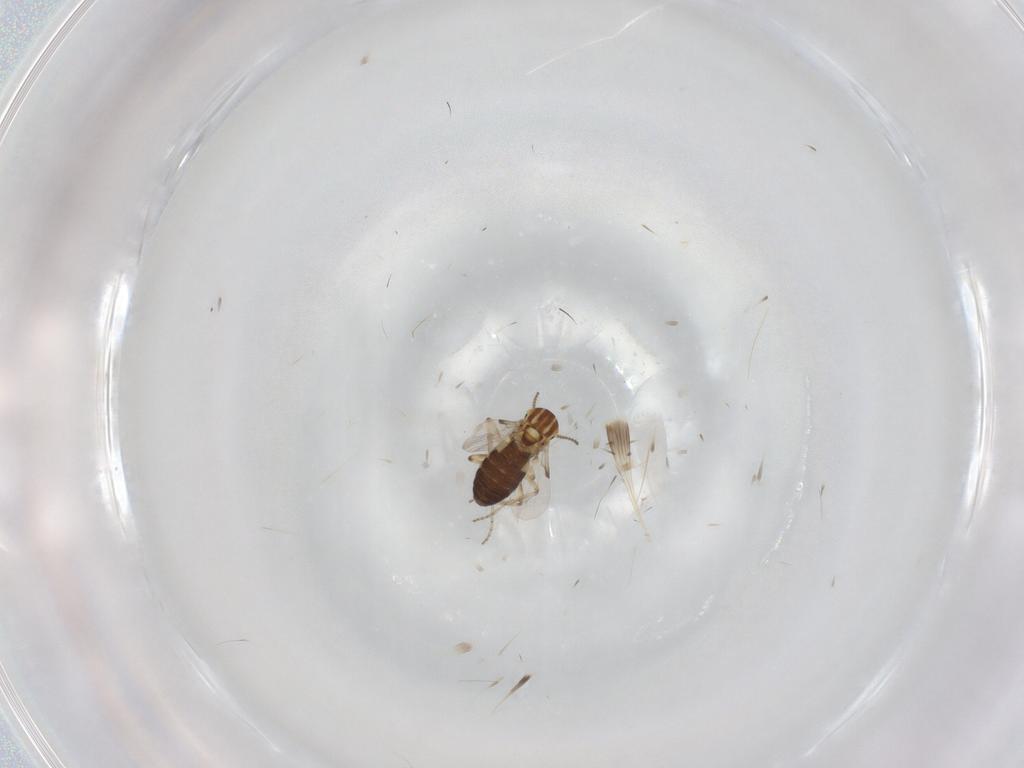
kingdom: Animalia
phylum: Arthropoda
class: Insecta
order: Diptera
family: Ceratopogonidae
